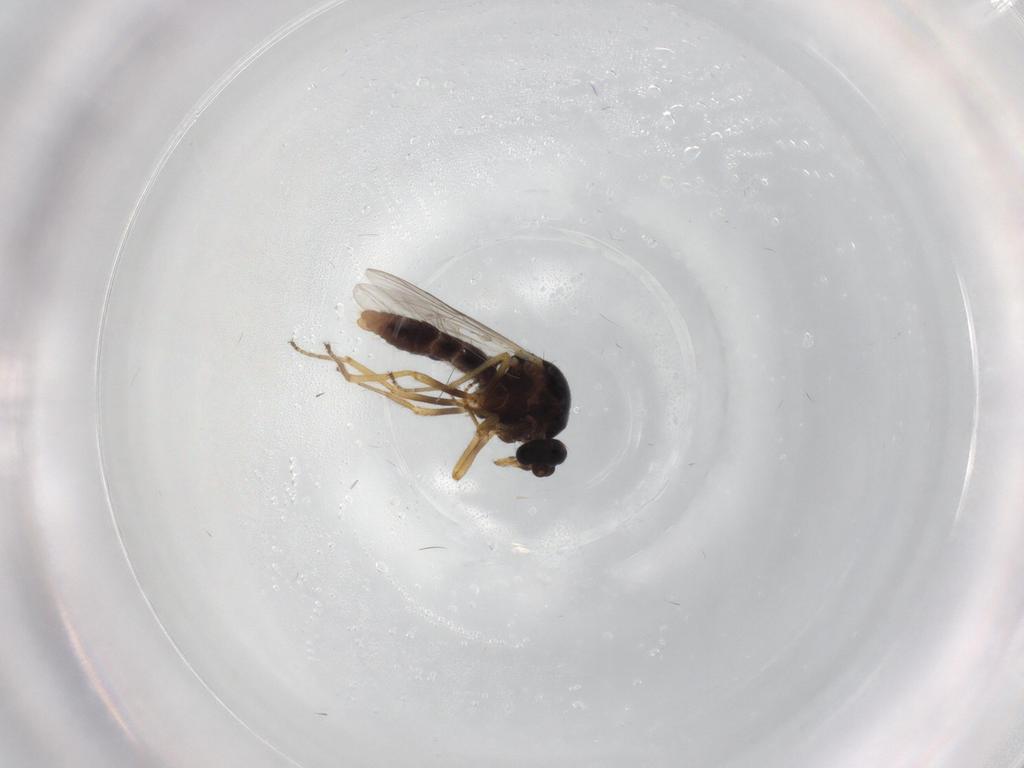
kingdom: Animalia
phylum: Arthropoda
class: Insecta
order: Diptera
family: Ceratopogonidae
